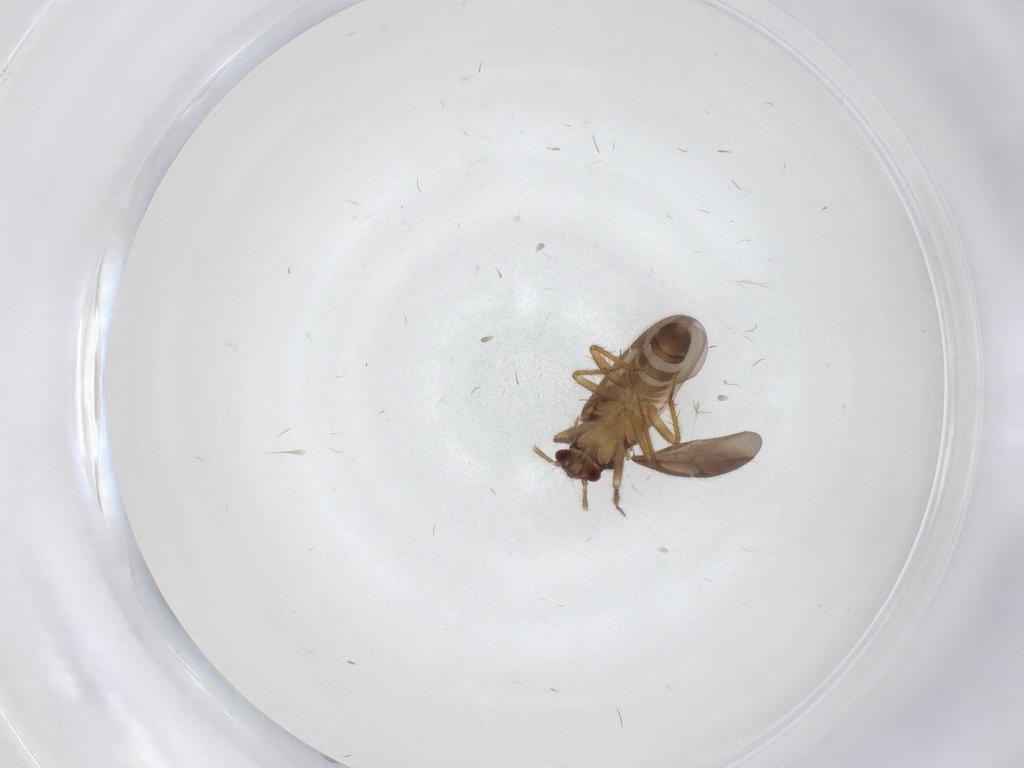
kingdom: Animalia
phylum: Arthropoda
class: Insecta
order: Hemiptera
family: Ceratocombidae
